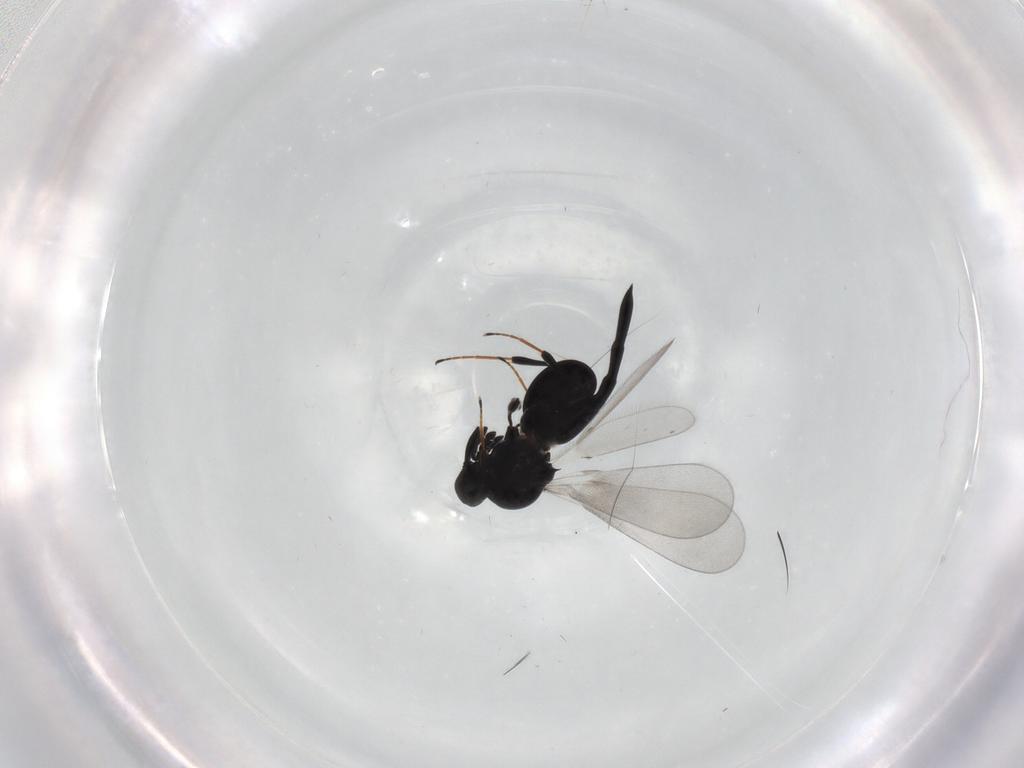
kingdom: Animalia
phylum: Arthropoda
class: Insecta
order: Hymenoptera
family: Platygastridae
